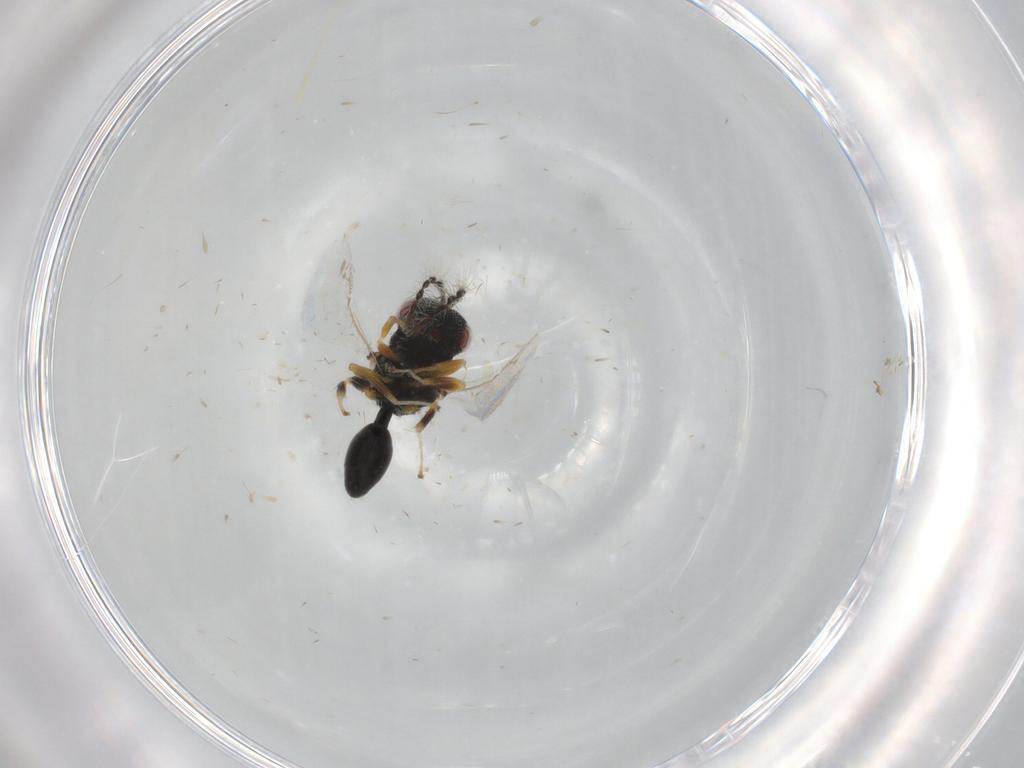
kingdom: Animalia
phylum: Arthropoda
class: Insecta
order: Hymenoptera
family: Eurytomidae
